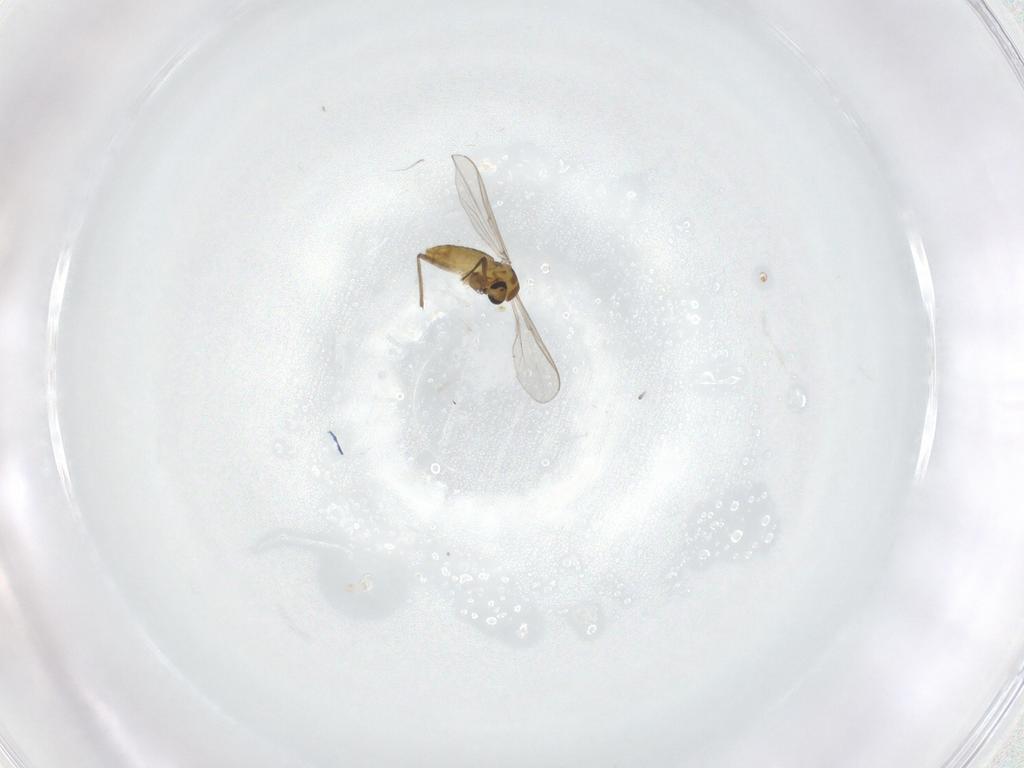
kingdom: Animalia
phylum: Arthropoda
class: Insecta
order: Diptera
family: Chironomidae
